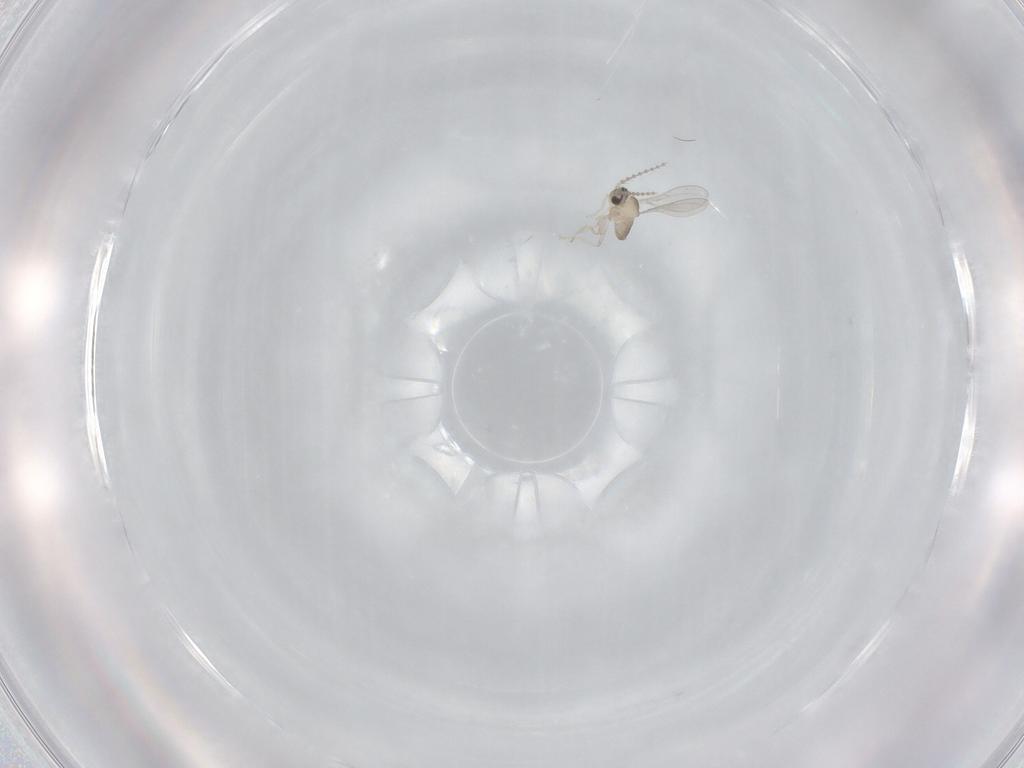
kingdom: Animalia
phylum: Arthropoda
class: Insecta
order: Diptera
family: Cecidomyiidae
